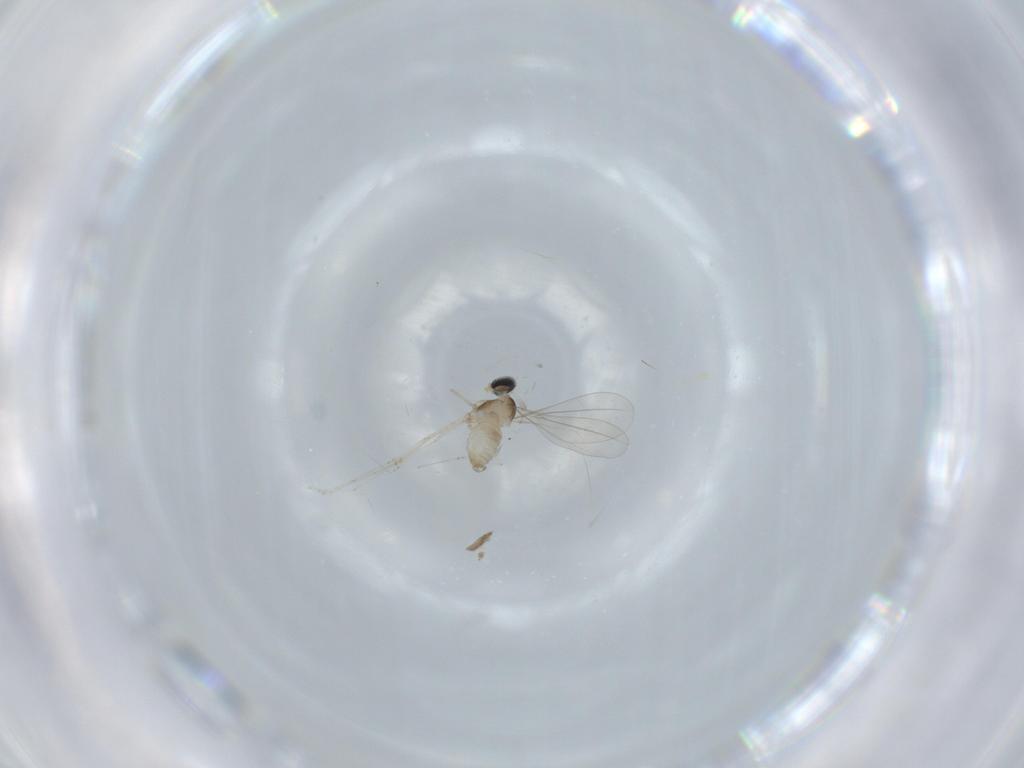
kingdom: Animalia
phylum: Arthropoda
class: Insecta
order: Diptera
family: Cecidomyiidae
